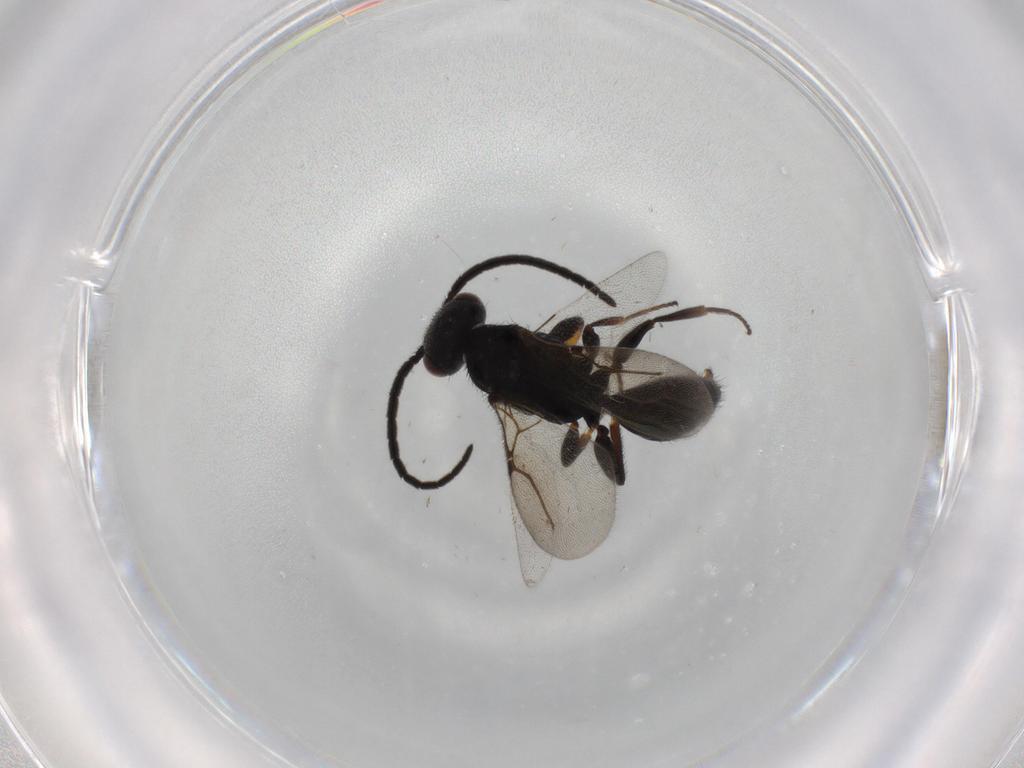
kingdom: Animalia
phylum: Arthropoda
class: Insecta
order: Hymenoptera
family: Bethylidae
